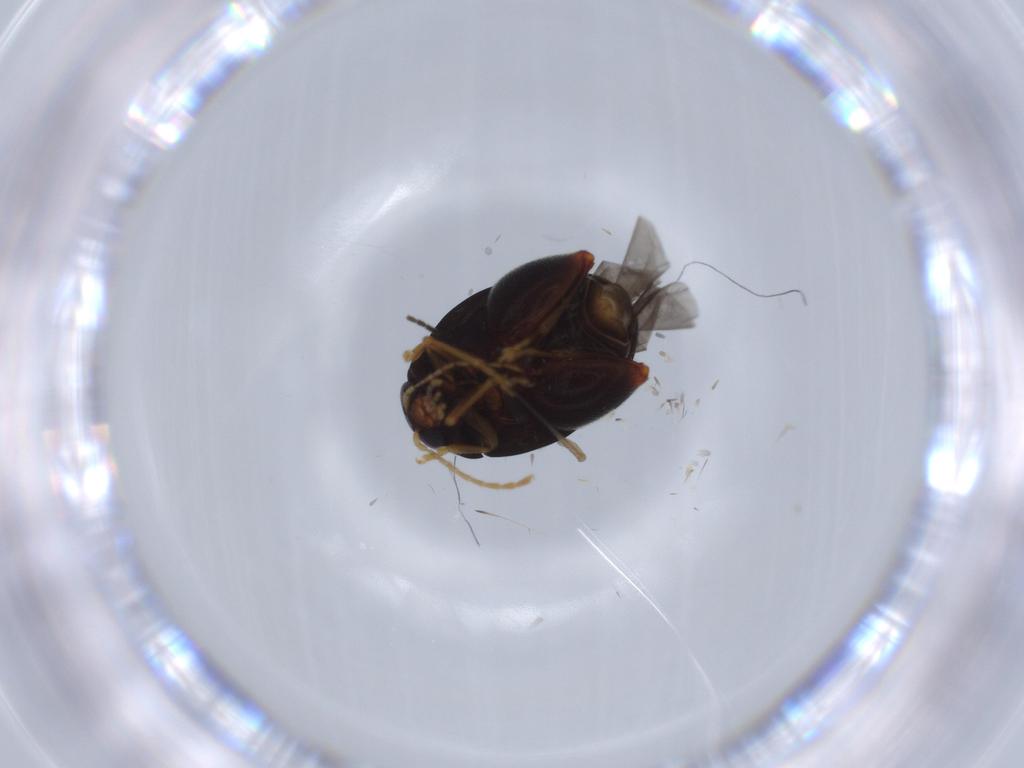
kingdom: Animalia
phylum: Arthropoda
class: Insecta
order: Coleoptera
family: Chrysomelidae
